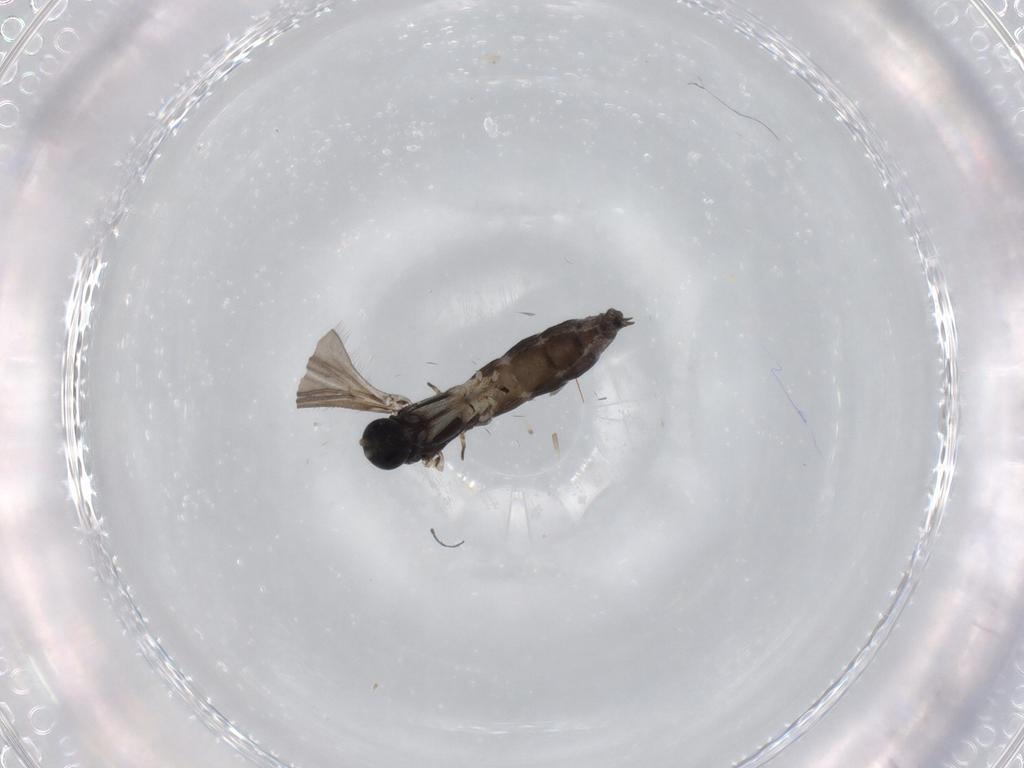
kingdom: Animalia
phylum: Arthropoda
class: Insecta
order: Diptera
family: Sciaridae
